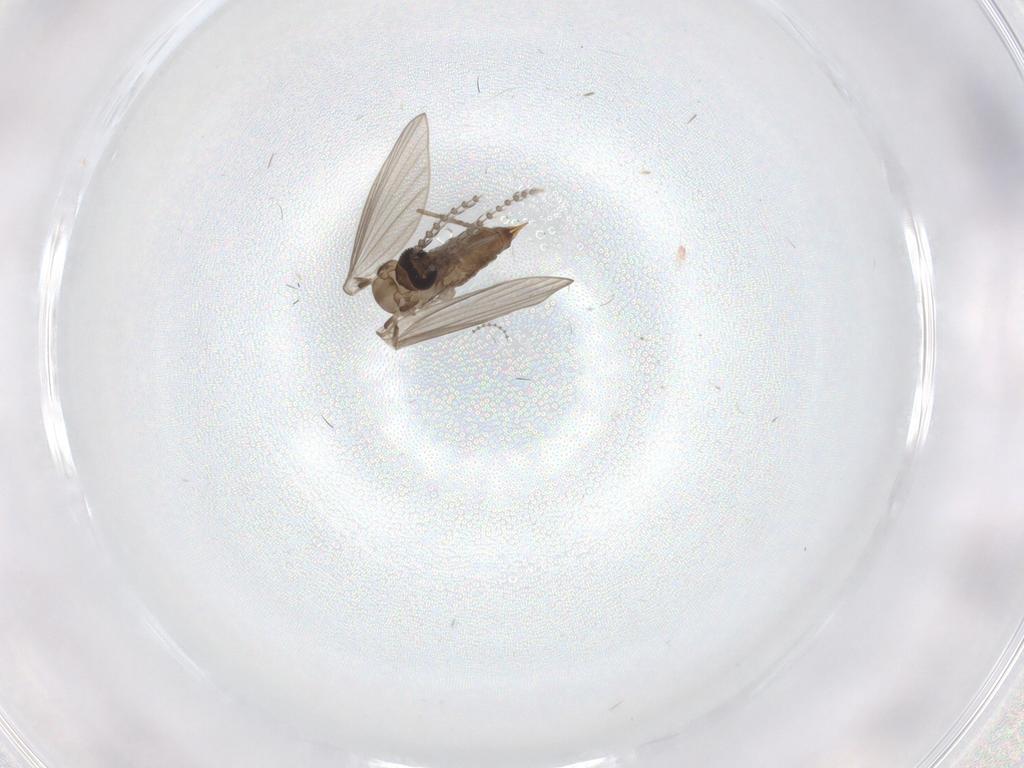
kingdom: Animalia
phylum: Arthropoda
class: Insecta
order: Diptera
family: Psychodidae
